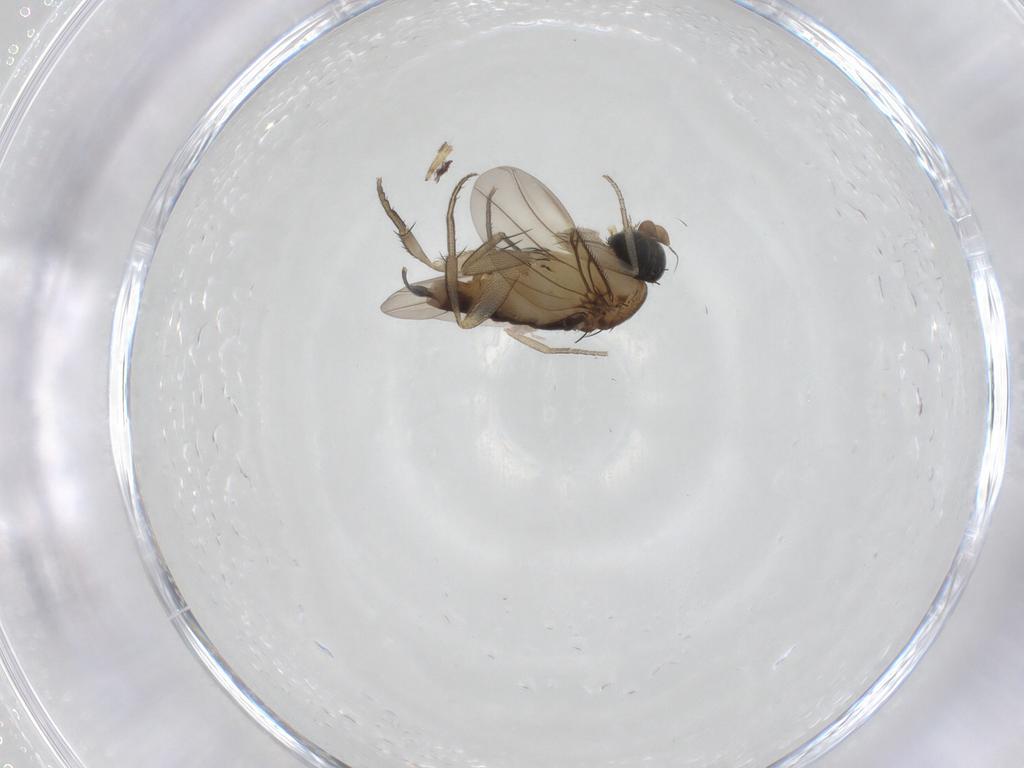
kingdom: Animalia
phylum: Arthropoda
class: Insecta
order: Diptera
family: Phoridae
